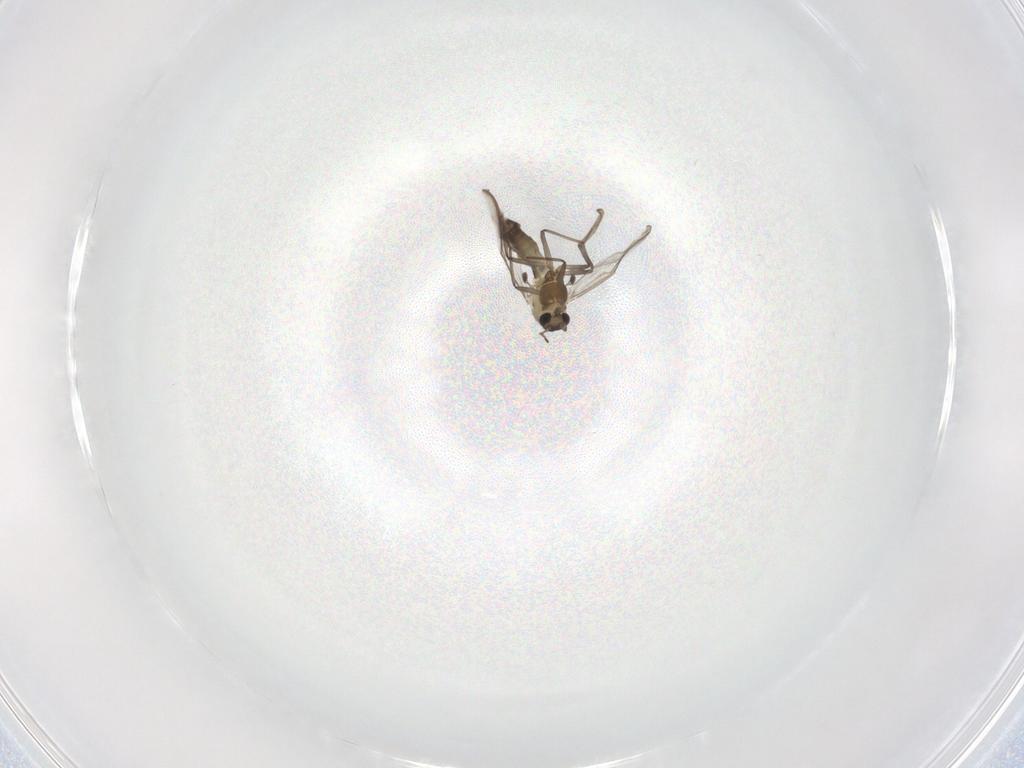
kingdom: Animalia
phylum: Arthropoda
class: Insecta
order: Diptera
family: Chironomidae
